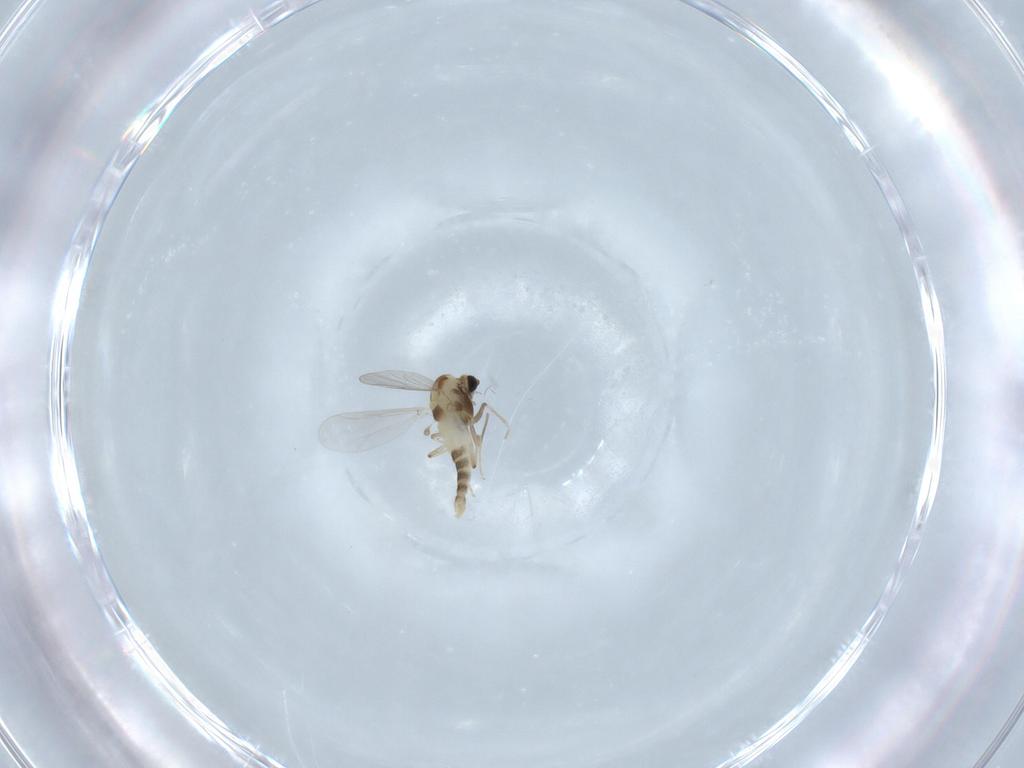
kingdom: Animalia
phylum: Arthropoda
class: Insecta
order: Diptera
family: Chironomidae
